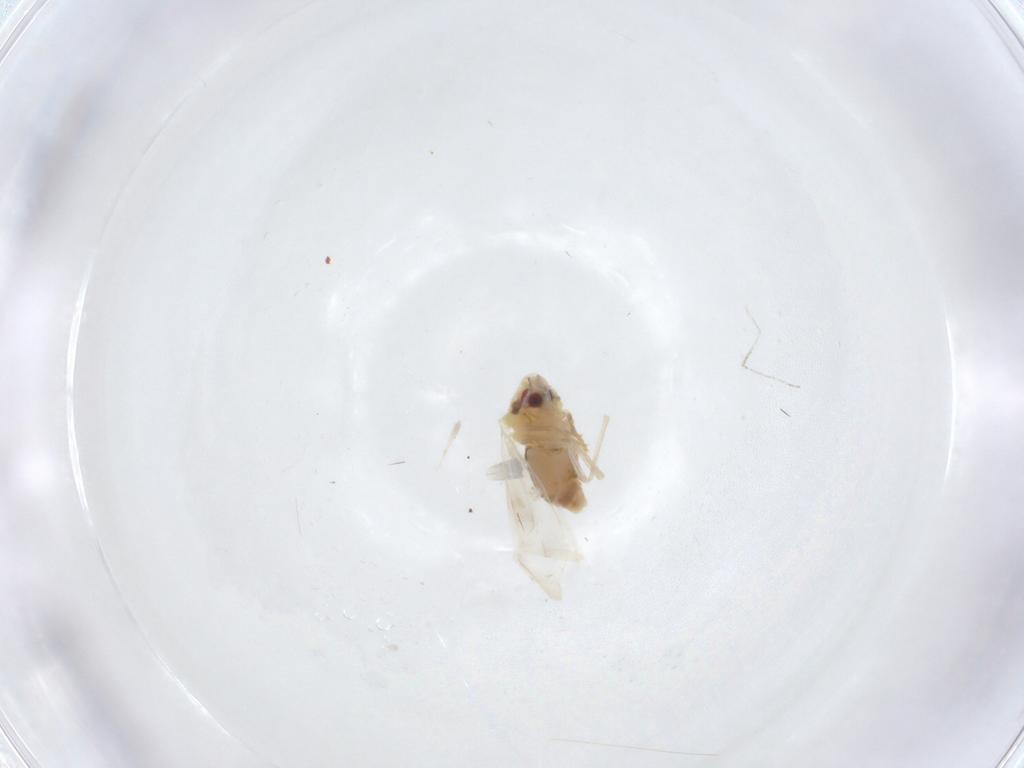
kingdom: Animalia
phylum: Arthropoda
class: Insecta
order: Hemiptera
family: Aleyrodidae
